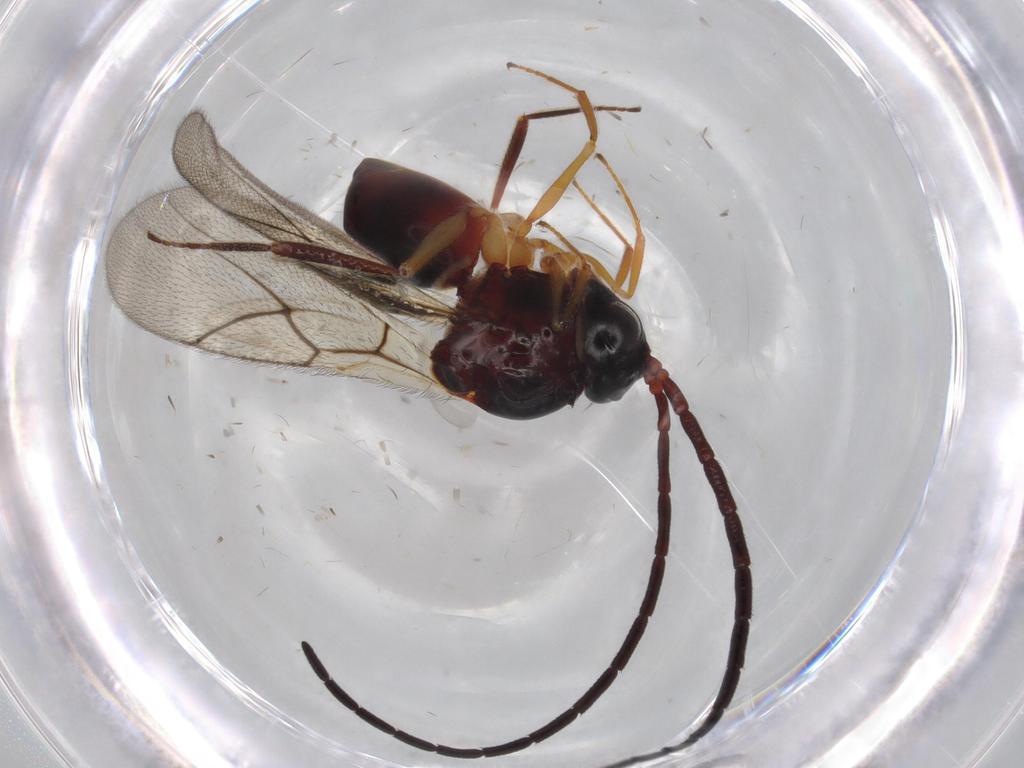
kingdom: Animalia
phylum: Arthropoda
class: Insecta
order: Hymenoptera
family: Figitidae
